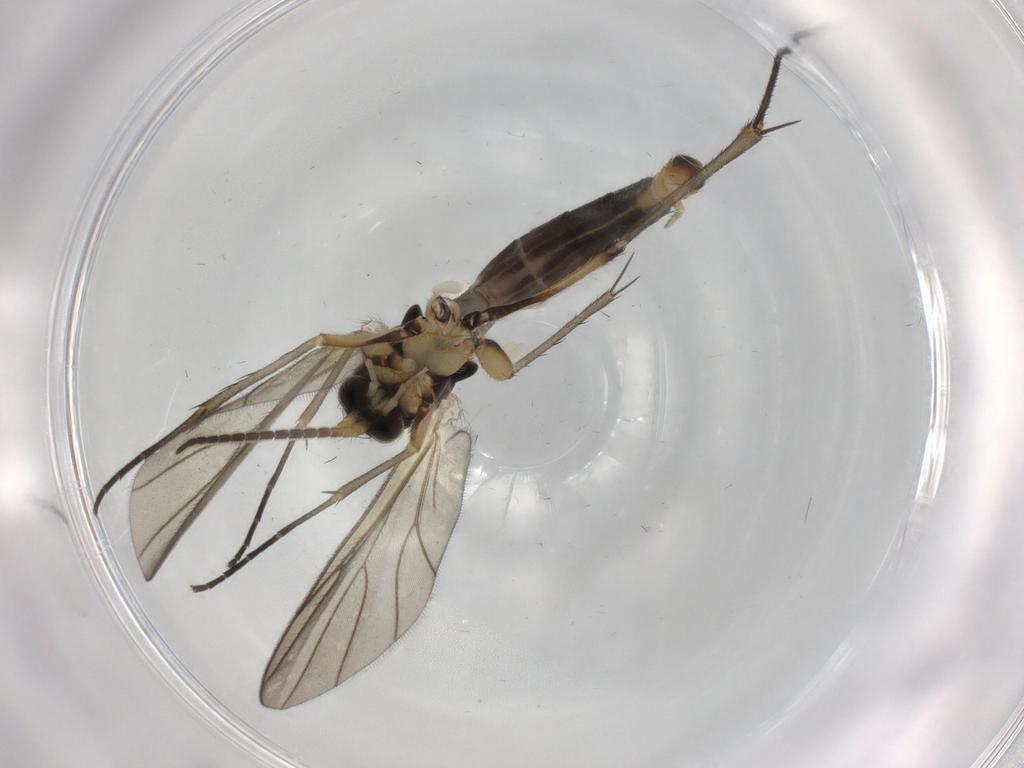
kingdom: Animalia
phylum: Arthropoda
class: Insecta
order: Diptera
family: Mycetophilidae
